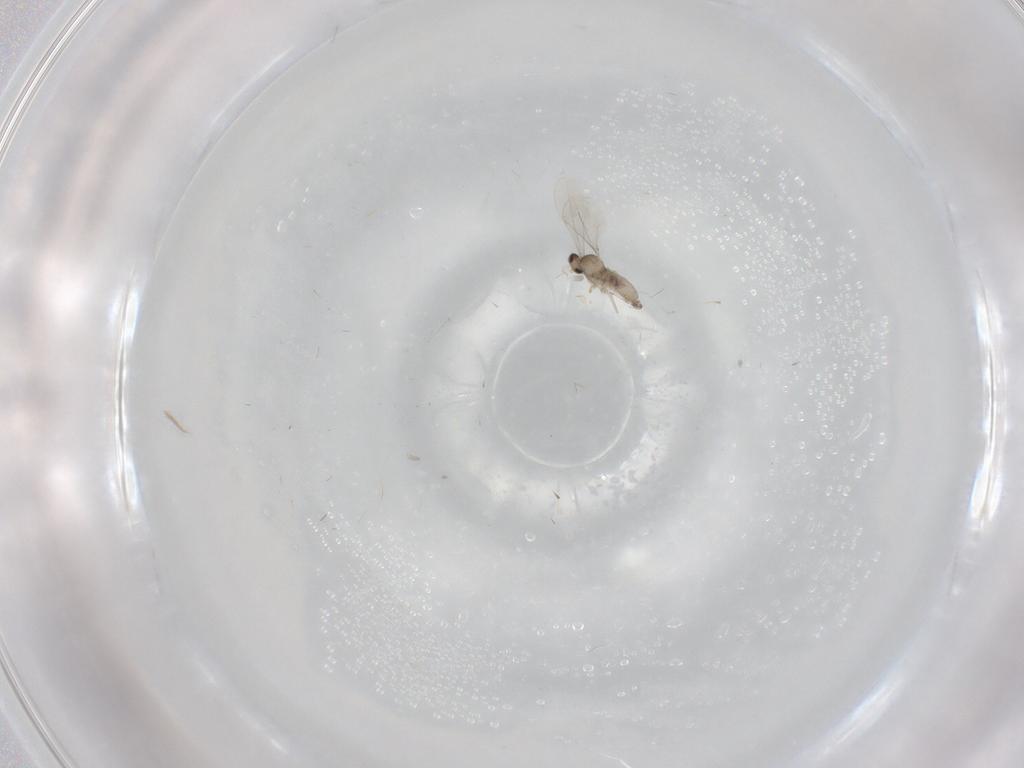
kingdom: Animalia
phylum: Arthropoda
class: Insecta
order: Diptera
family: Cecidomyiidae
